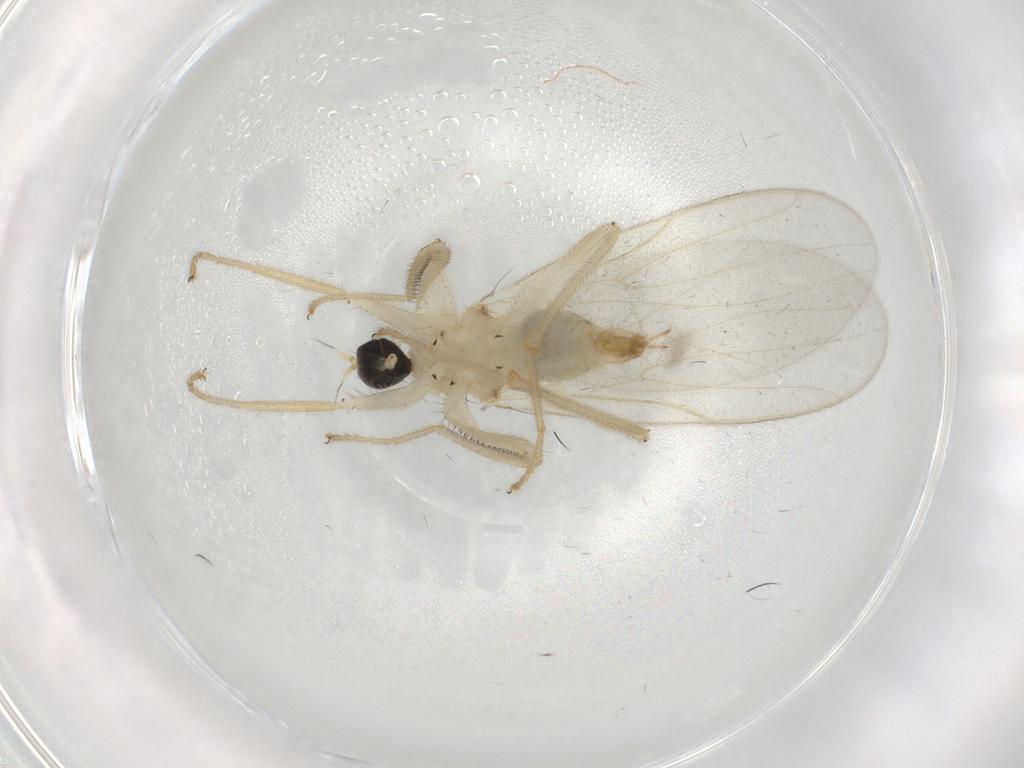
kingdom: Animalia
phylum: Arthropoda
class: Insecta
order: Diptera
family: Hybotidae
